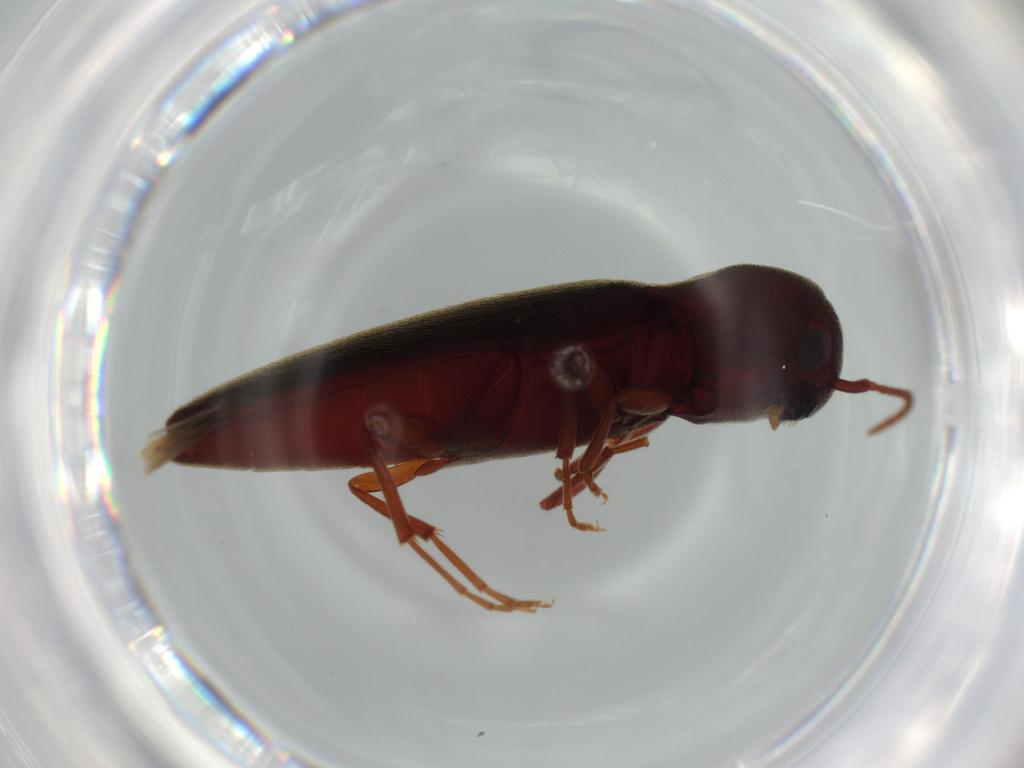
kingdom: Animalia
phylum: Arthropoda
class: Insecta
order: Coleoptera
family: Eucnemidae
